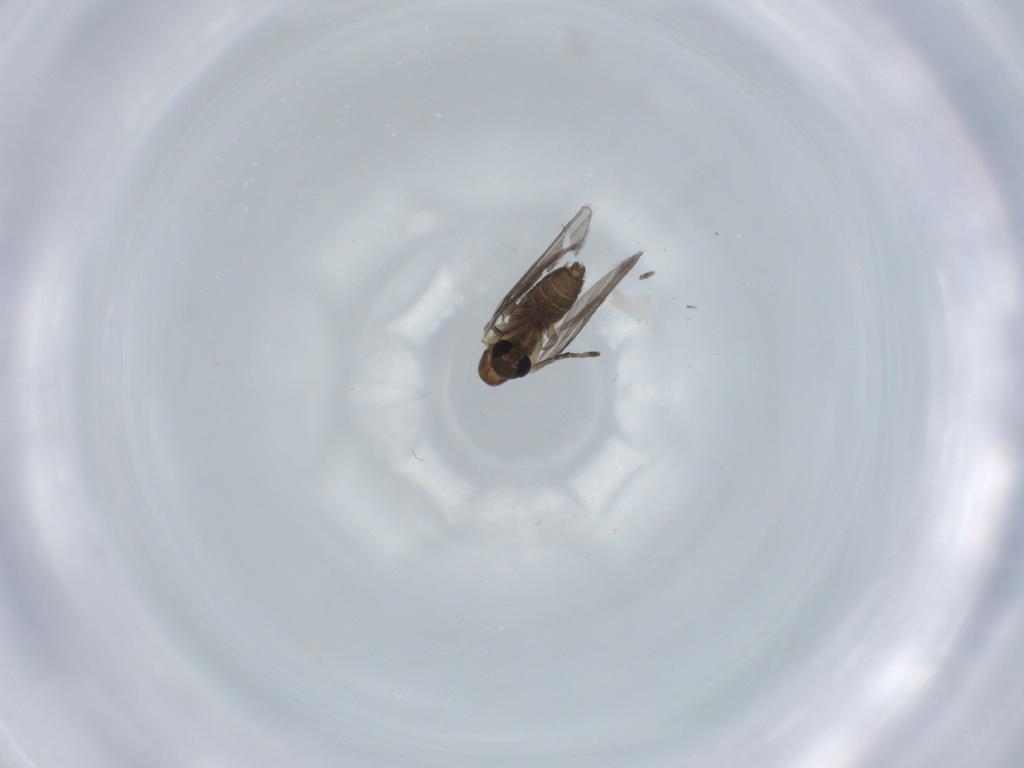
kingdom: Animalia
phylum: Arthropoda
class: Insecta
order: Diptera
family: Psychodidae
